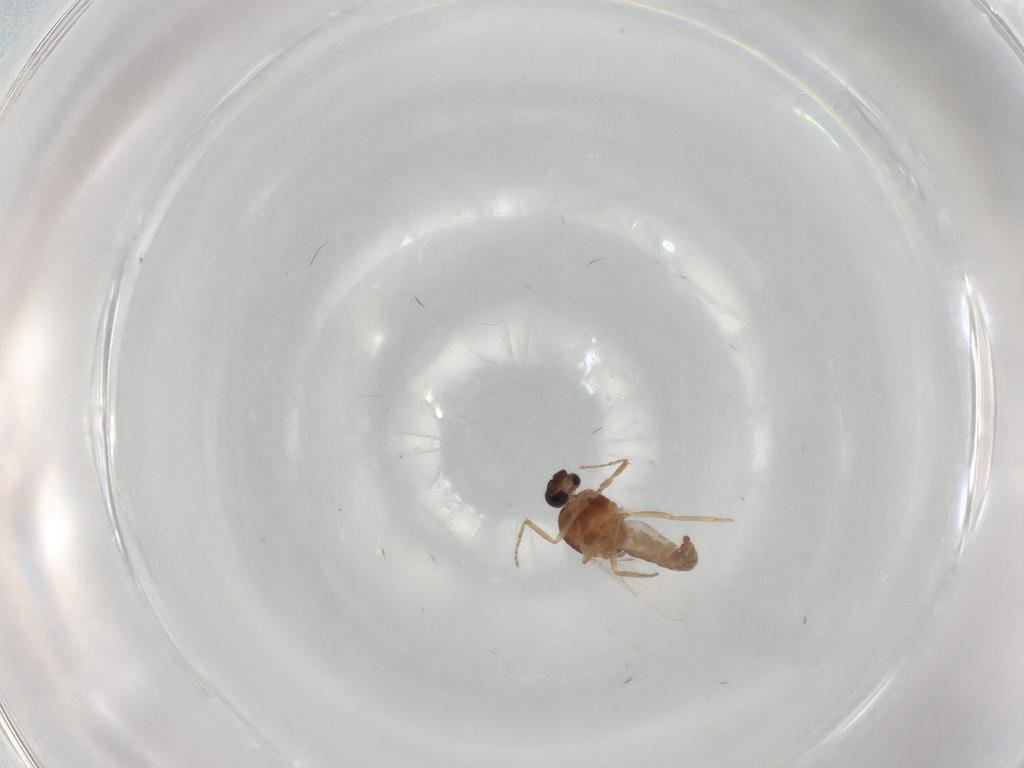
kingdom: Animalia
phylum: Arthropoda
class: Insecta
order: Diptera
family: Ceratopogonidae
